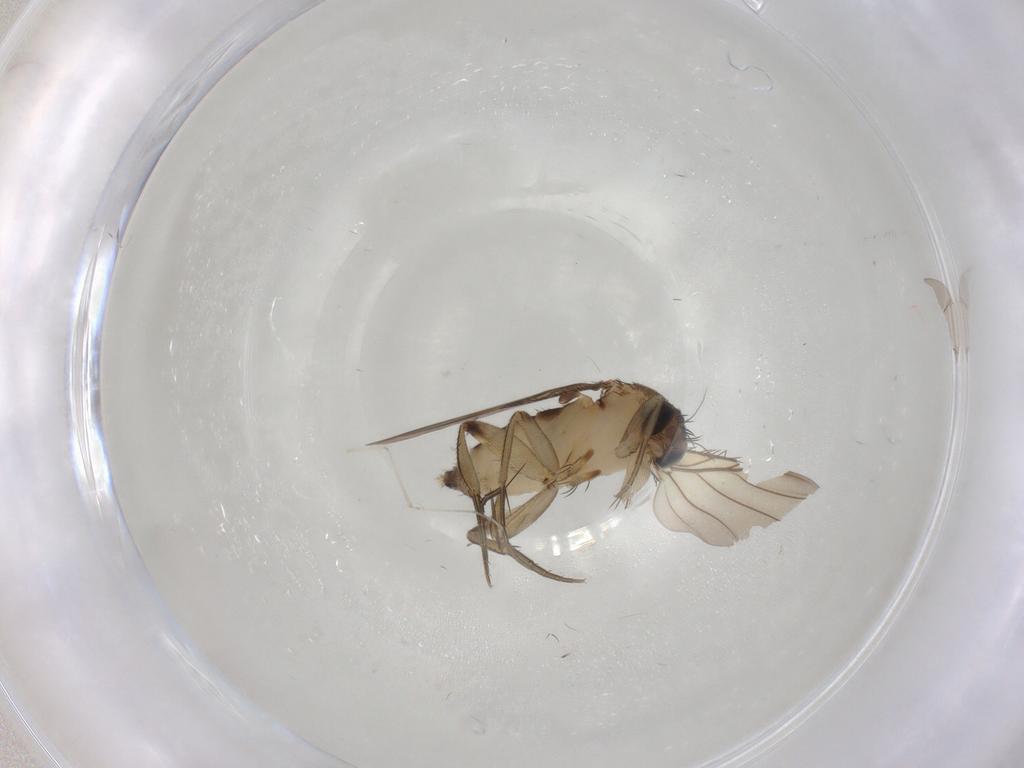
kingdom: Animalia
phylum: Arthropoda
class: Insecta
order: Diptera
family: Phoridae
